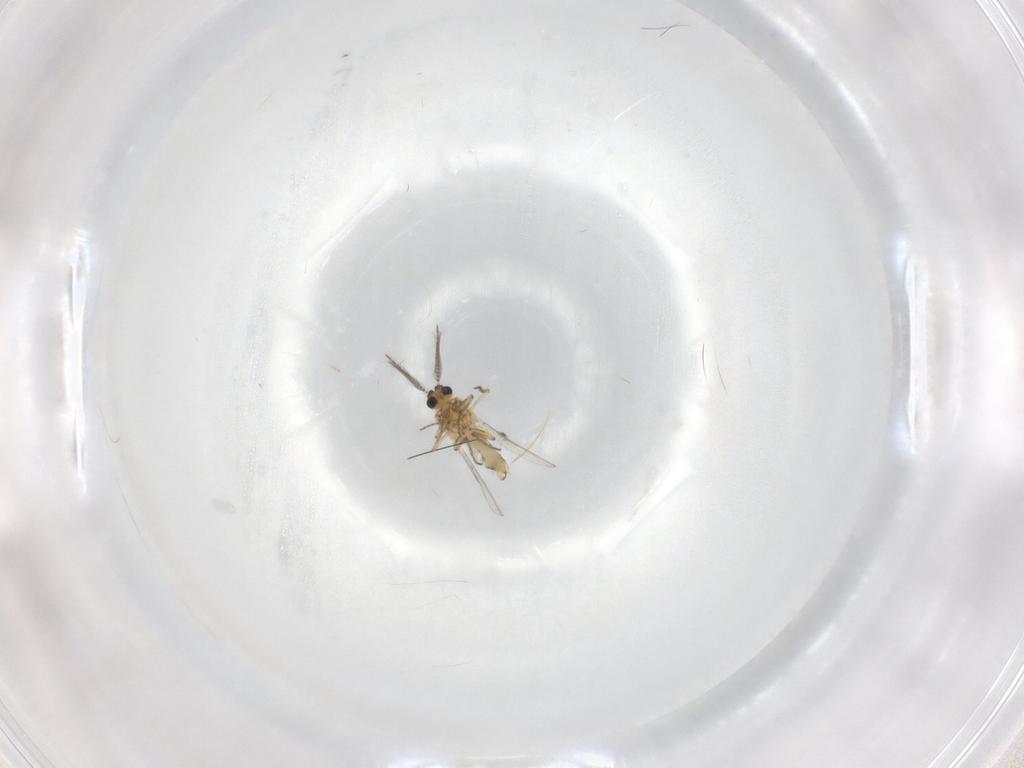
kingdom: Animalia
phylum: Arthropoda
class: Insecta
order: Diptera
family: Ceratopogonidae
